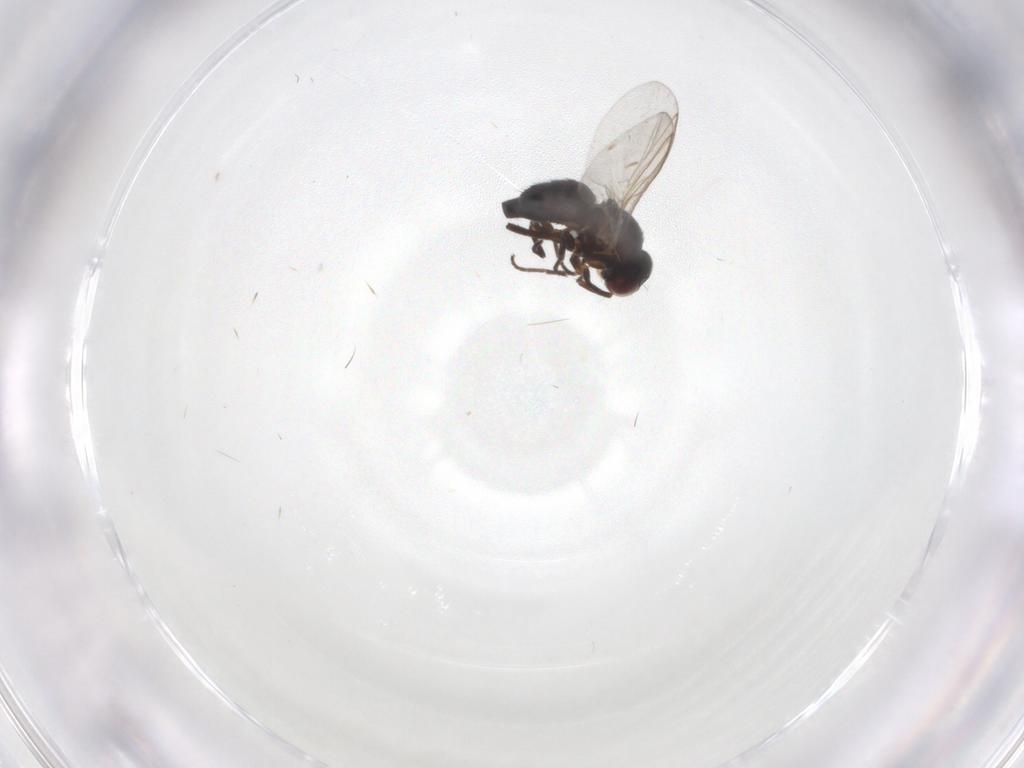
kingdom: Animalia
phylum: Arthropoda
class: Insecta
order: Diptera
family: Agromyzidae
